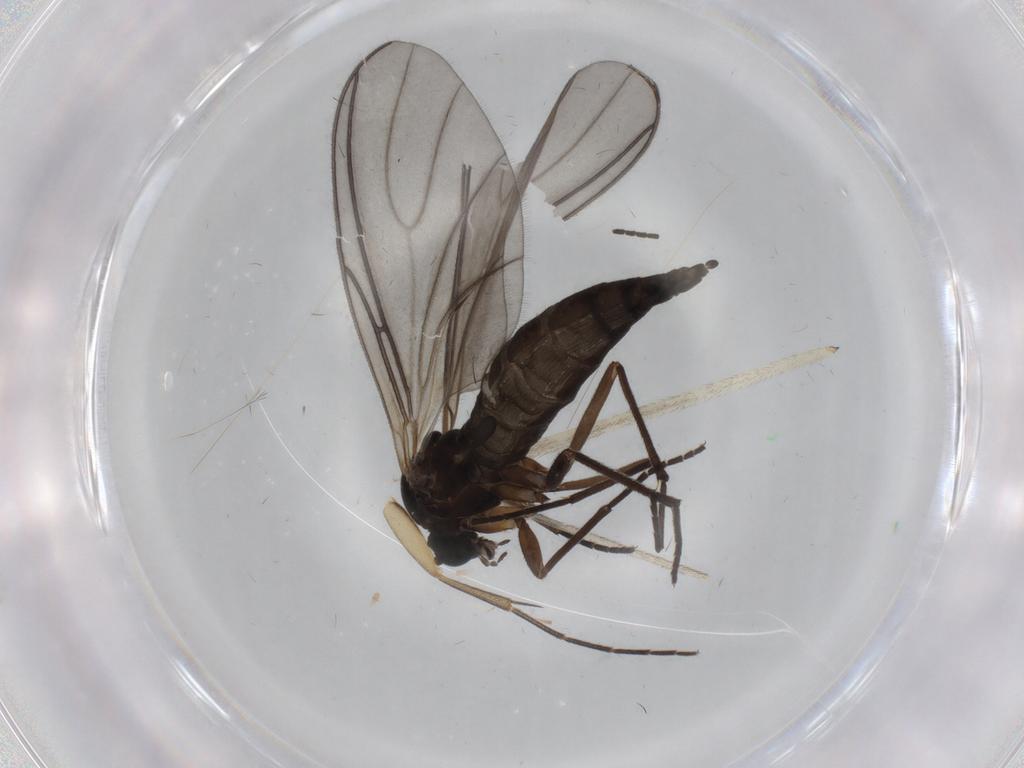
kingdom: Animalia
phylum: Arthropoda
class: Insecta
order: Diptera
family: Sciaridae
